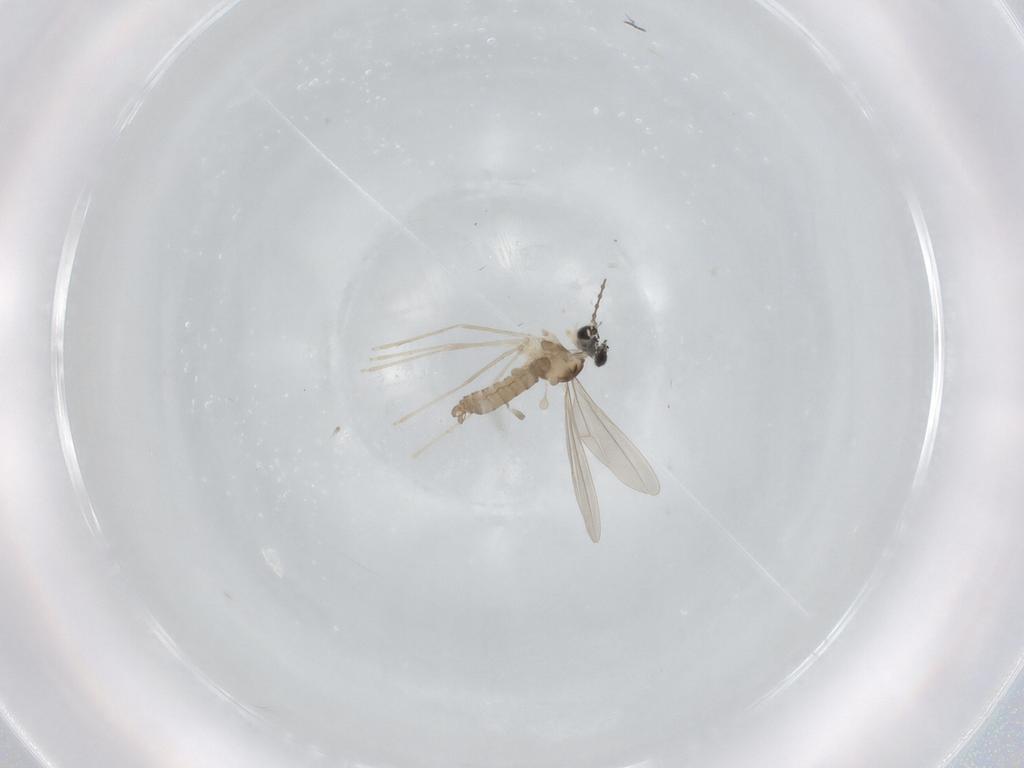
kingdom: Animalia
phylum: Arthropoda
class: Insecta
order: Diptera
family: Cecidomyiidae
